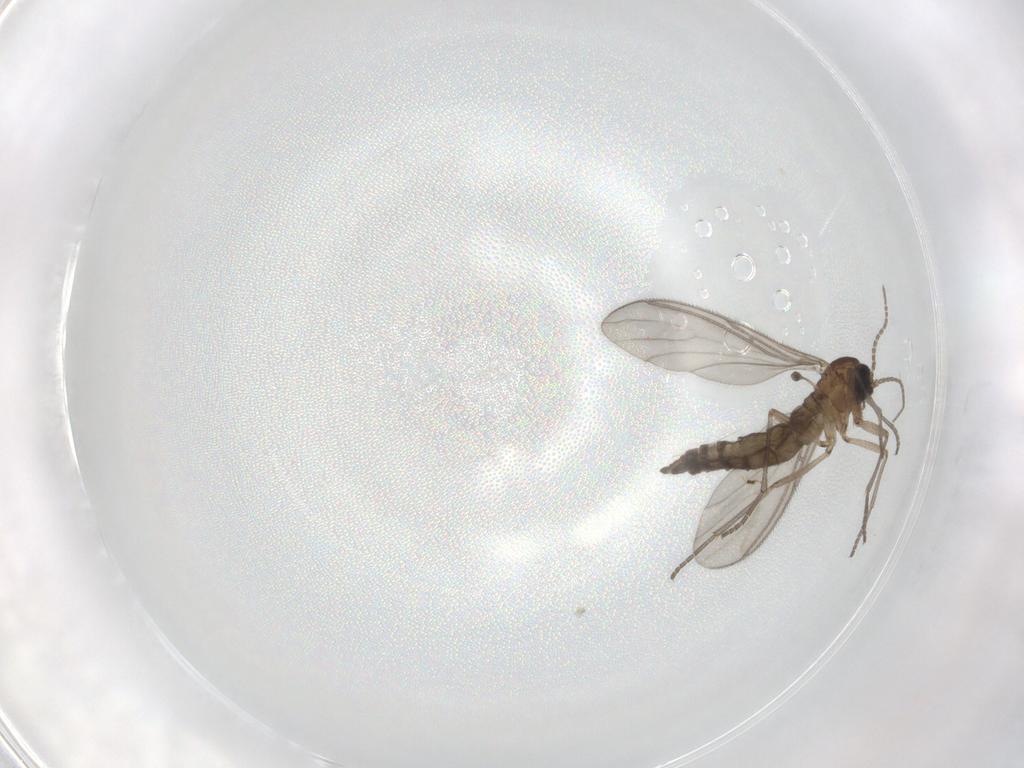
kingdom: Animalia
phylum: Arthropoda
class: Insecta
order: Diptera
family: Sciaridae
